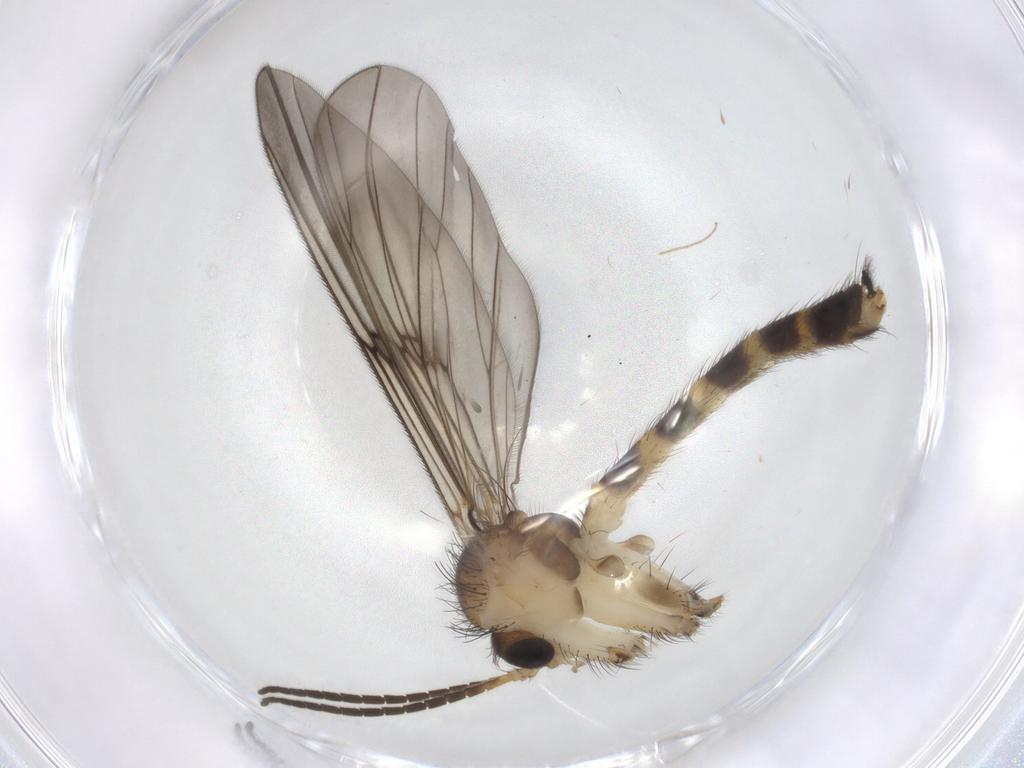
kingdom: Animalia
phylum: Arthropoda
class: Insecta
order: Diptera
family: Mycetophilidae
